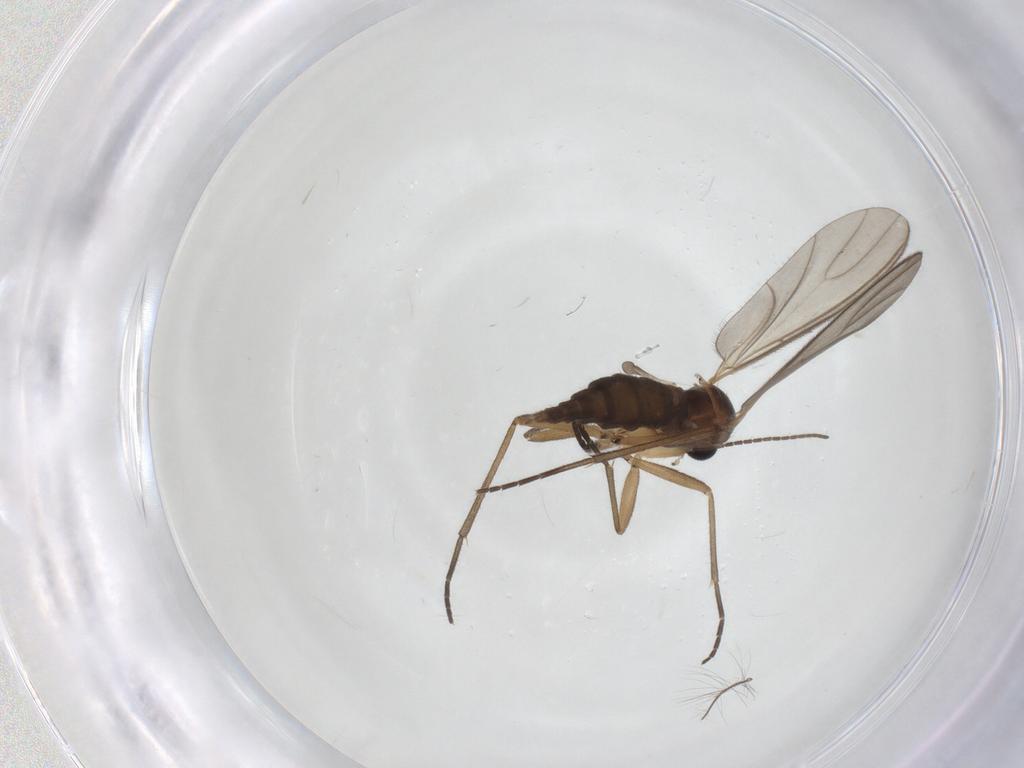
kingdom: Animalia
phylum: Arthropoda
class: Insecta
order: Diptera
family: Sciaridae
